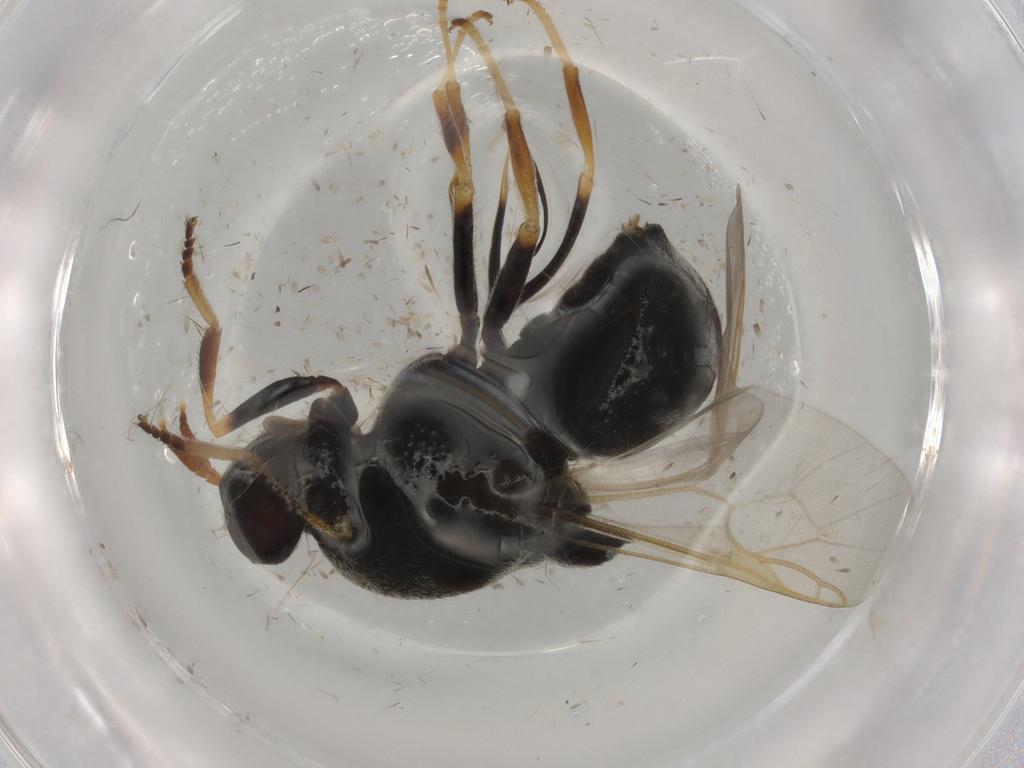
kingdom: Animalia
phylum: Arthropoda
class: Insecta
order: Diptera
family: Stratiomyidae
